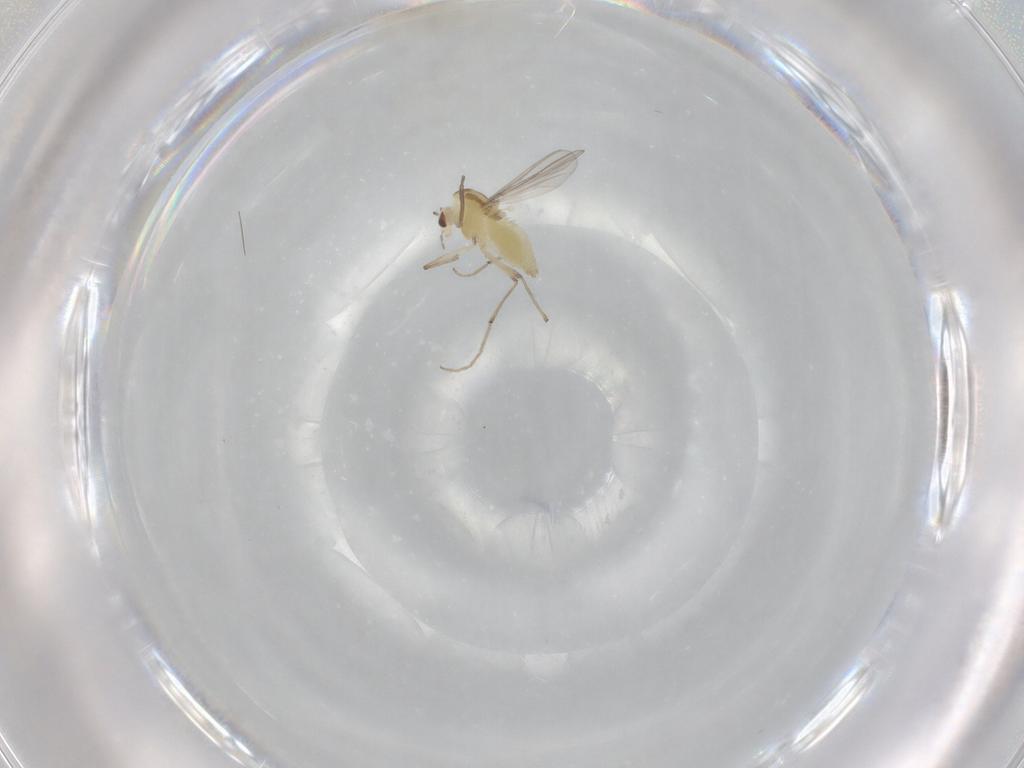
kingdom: Animalia
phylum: Arthropoda
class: Insecta
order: Diptera
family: Chironomidae
